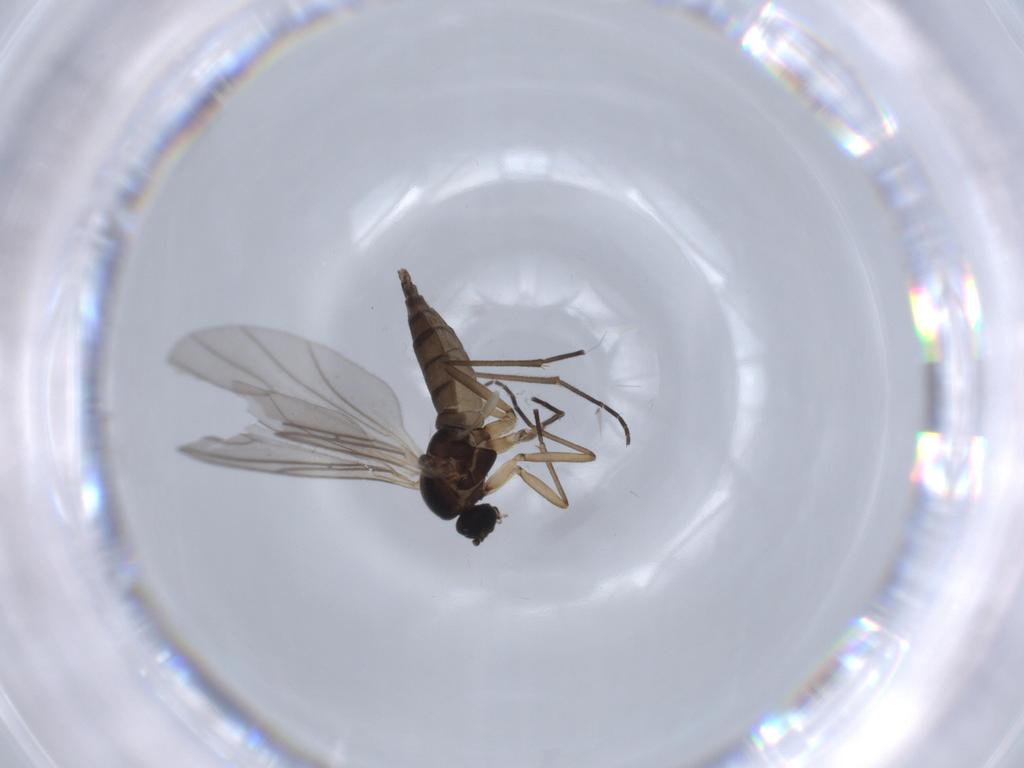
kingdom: Animalia
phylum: Arthropoda
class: Insecta
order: Diptera
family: Sciaridae
